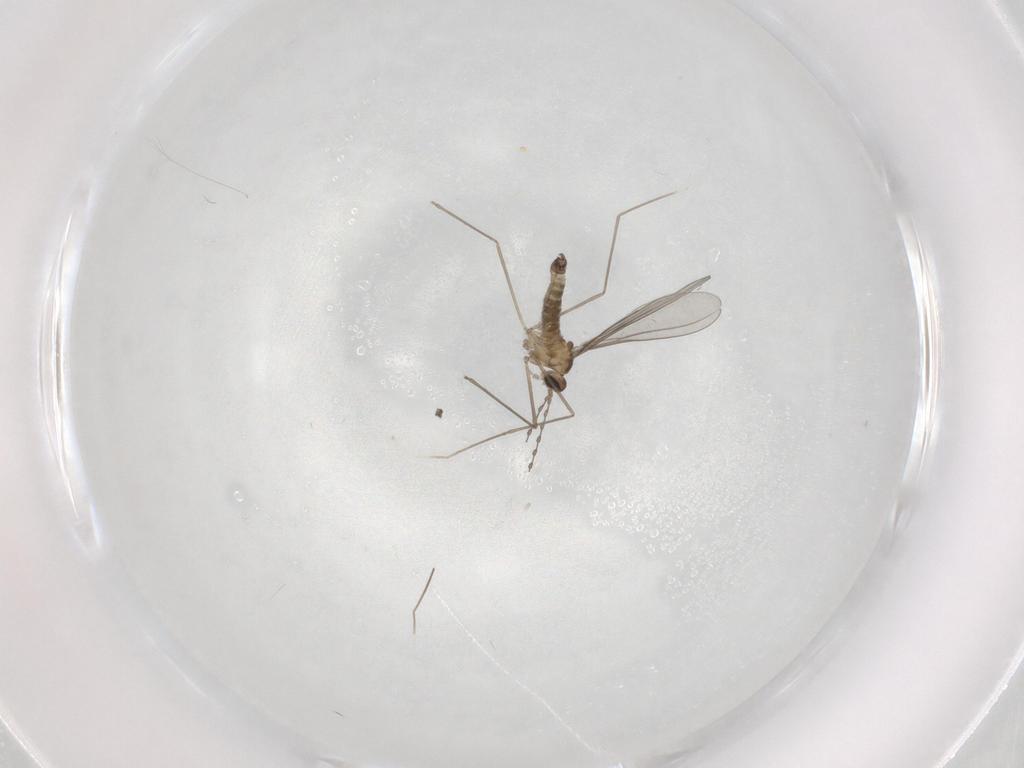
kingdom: Animalia
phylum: Arthropoda
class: Insecta
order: Diptera
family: Cecidomyiidae
